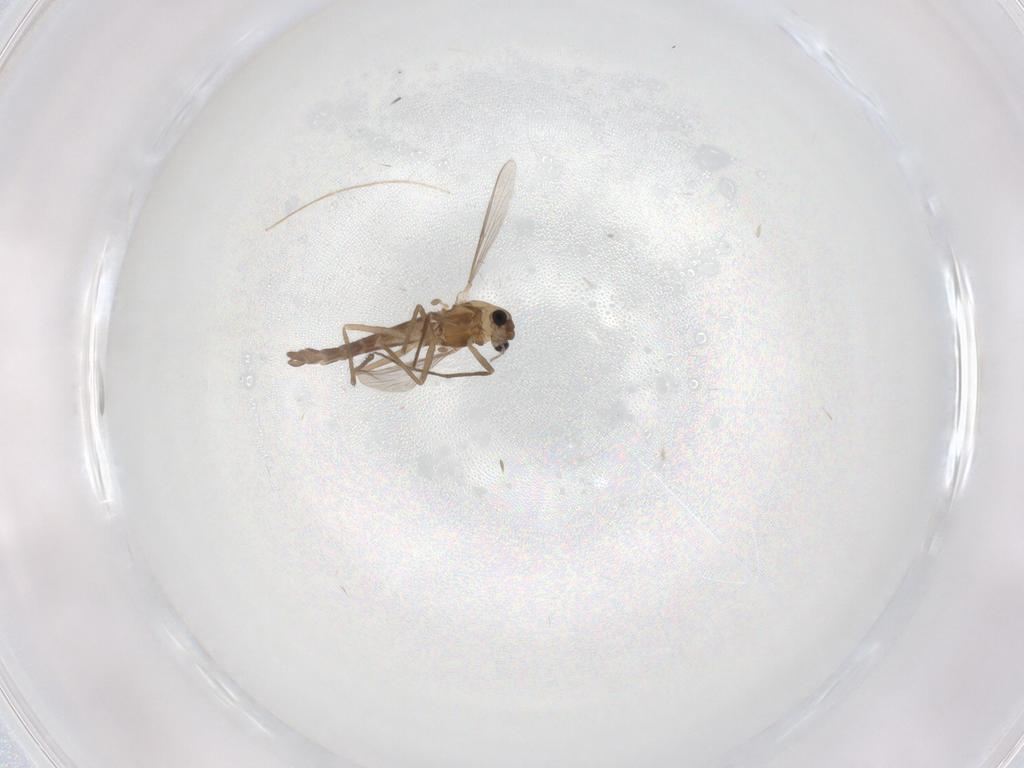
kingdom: Animalia
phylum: Arthropoda
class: Insecta
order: Diptera
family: Chironomidae
